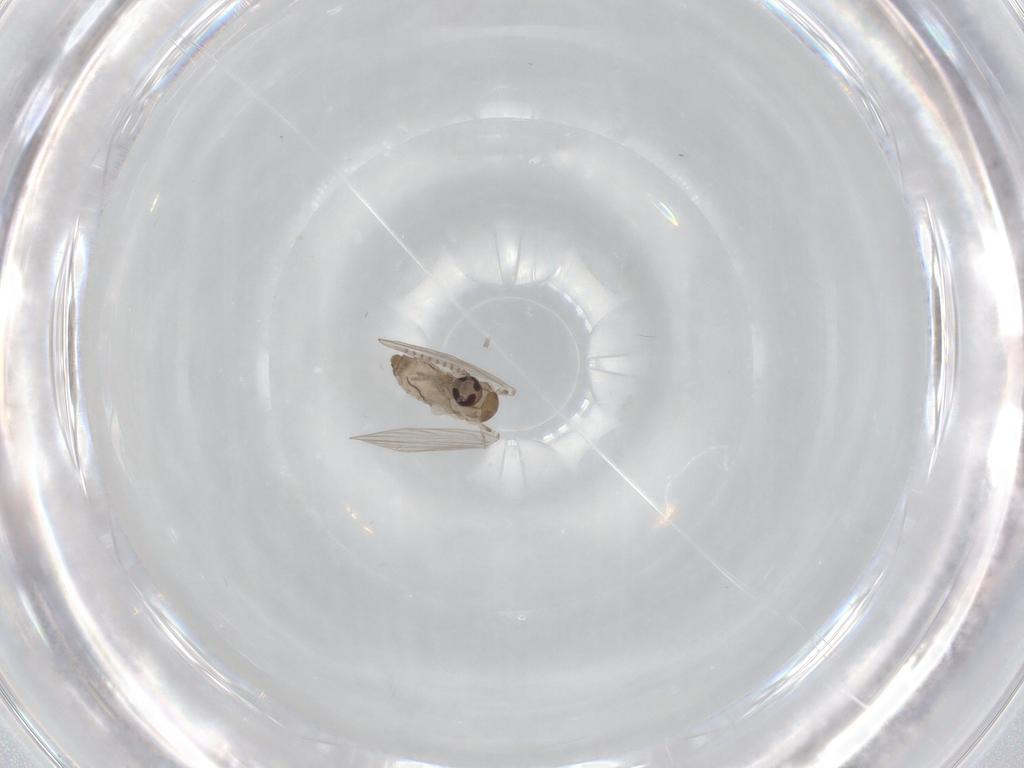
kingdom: Animalia
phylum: Arthropoda
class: Insecta
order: Diptera
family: Psychodidae
